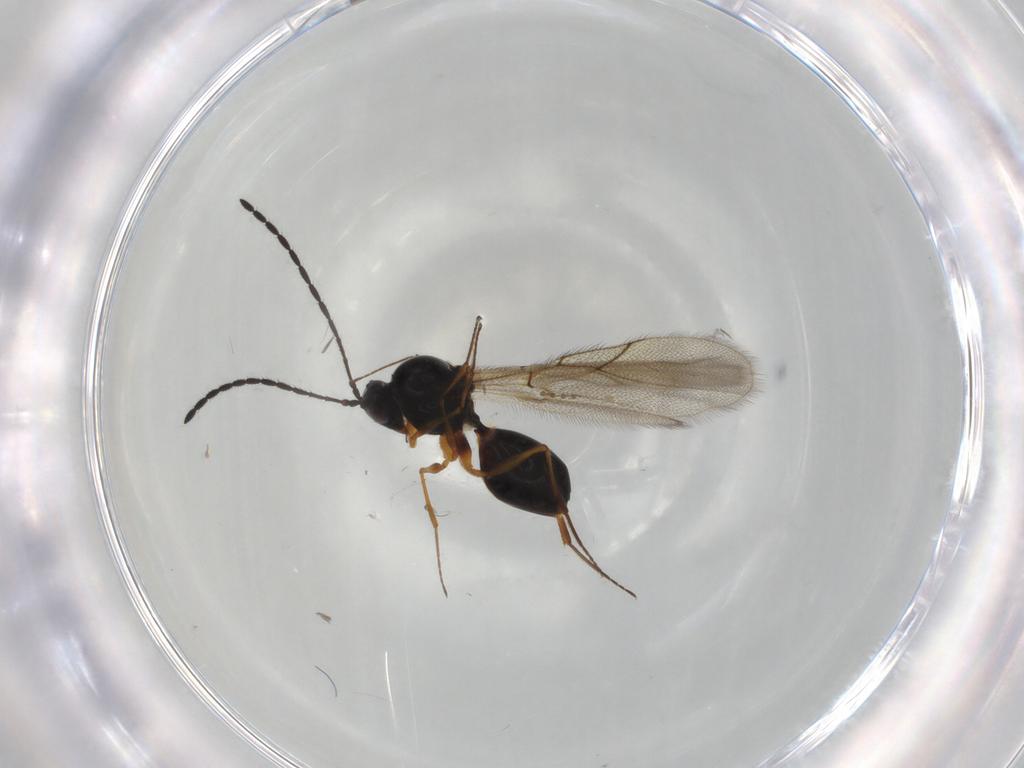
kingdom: Animalia
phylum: Arthropoda
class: Insecta
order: Hymenoptera
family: Figitidae
